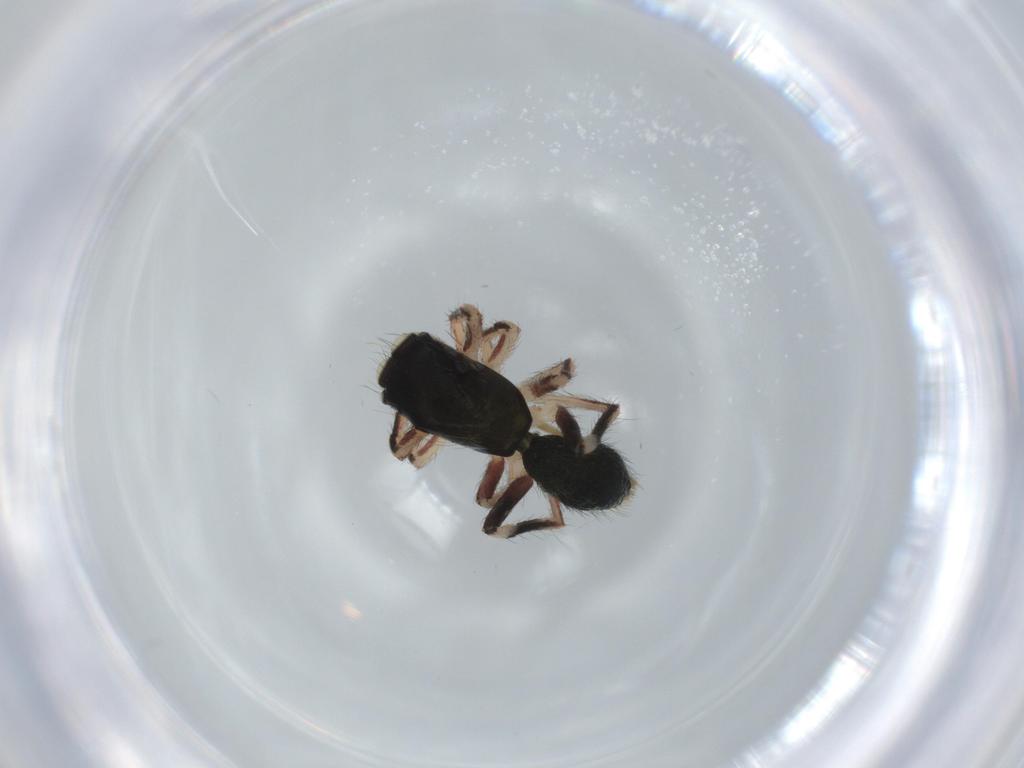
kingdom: Animalia
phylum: Arthropoda
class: Arachnida
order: Araneae
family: Salticidae
